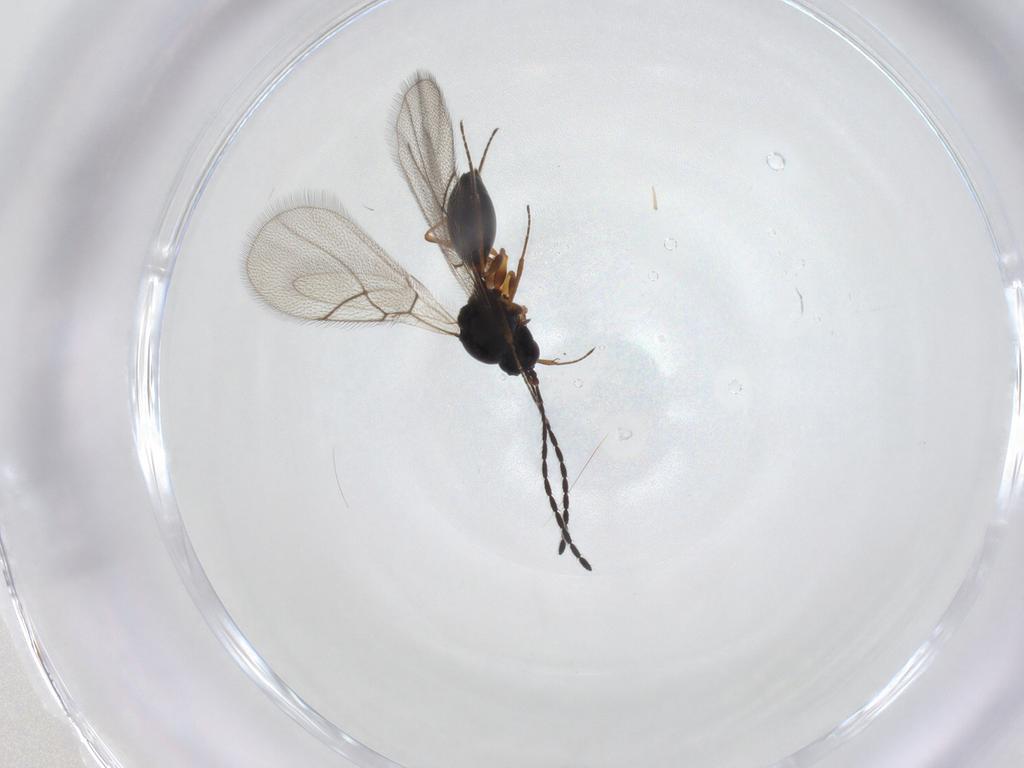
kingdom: Animalia
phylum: Arthropoda
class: Insecta
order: Hymenoptera
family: Figitidae
